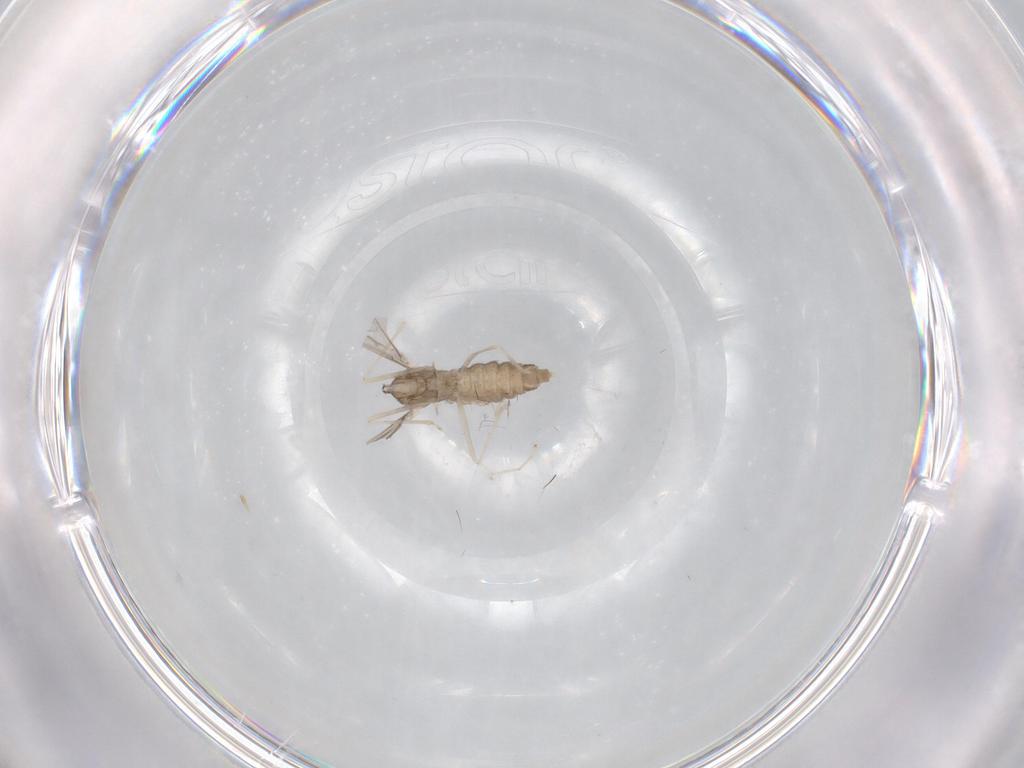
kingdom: Animalia
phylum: Arthropoda
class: Insecta
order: Diptera
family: Cecidomyiidae
